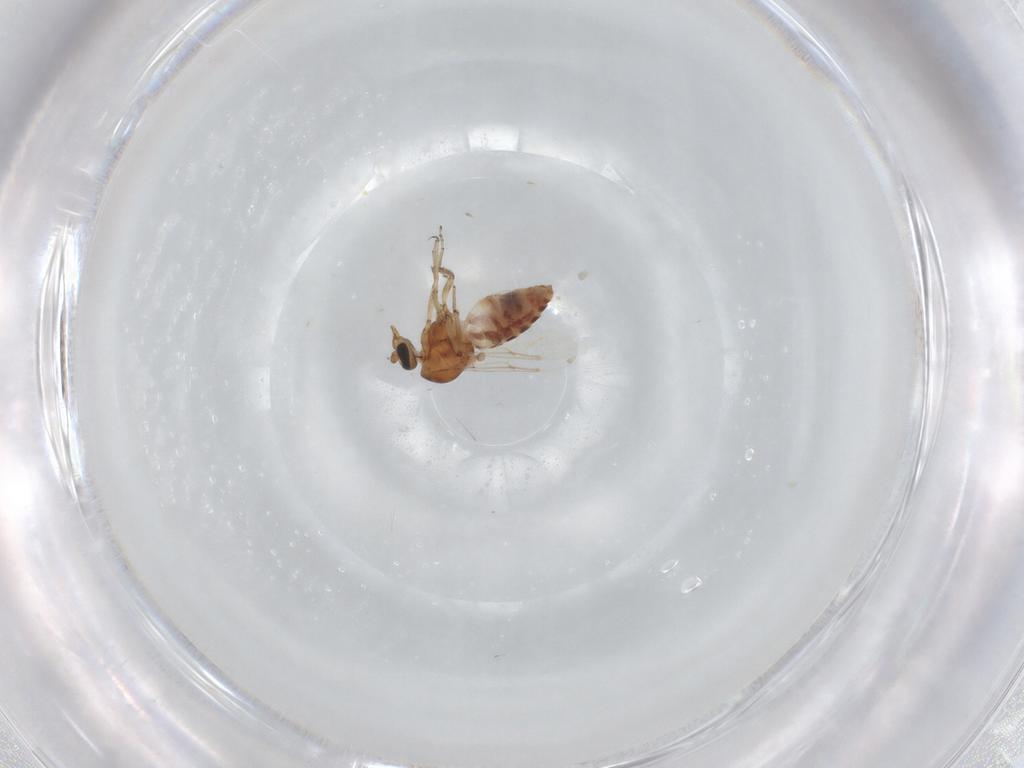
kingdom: Animalia
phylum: Arthropoda
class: Insecta
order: Diptera
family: Ceratopogonidae
